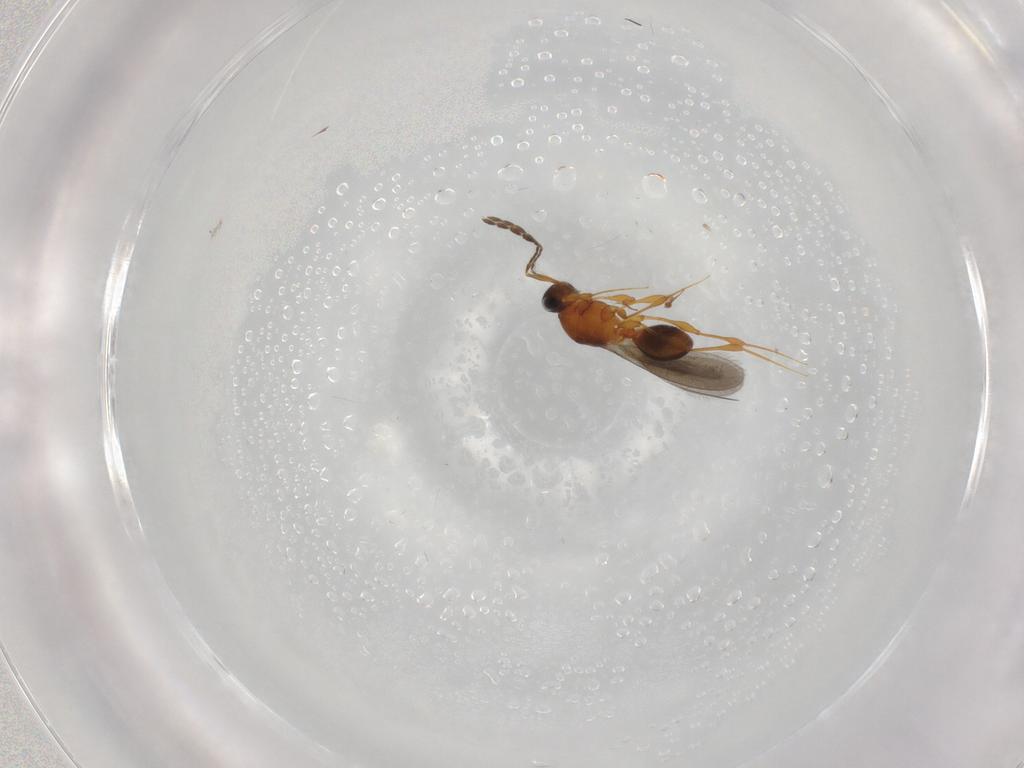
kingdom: Animalia
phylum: Arthropoda
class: Insecta
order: Hymenoptera
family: Platygastridae
